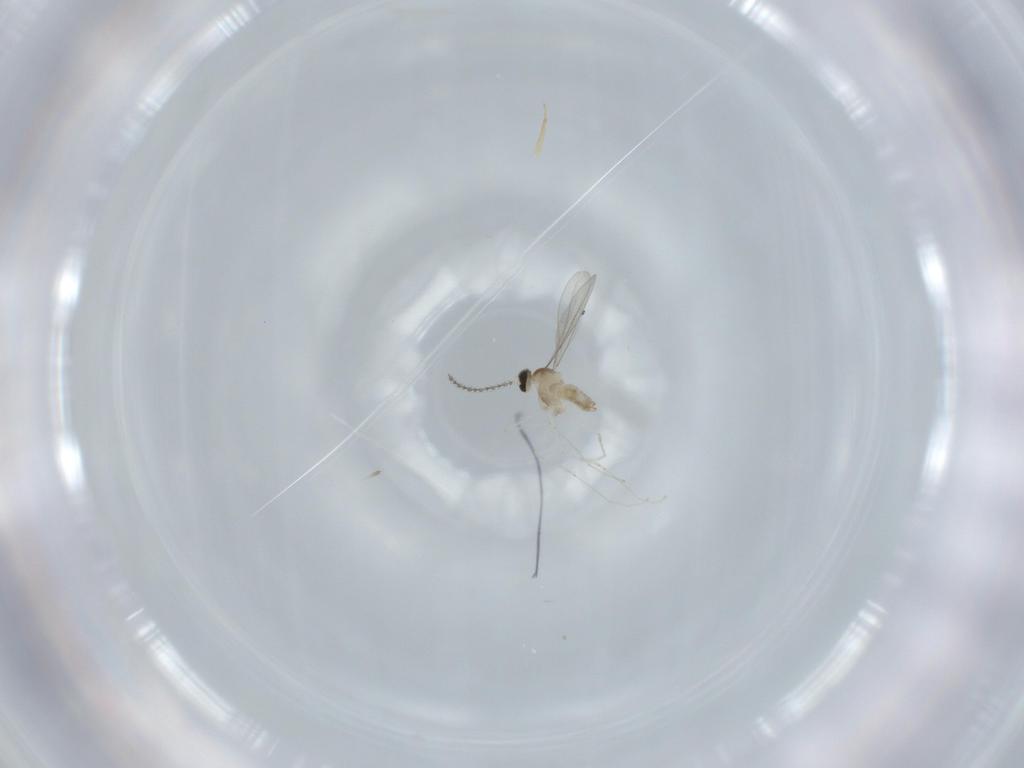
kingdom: Animalia
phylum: Arthropoda
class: Insecta
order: Diptera
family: Cecidomyiidae
